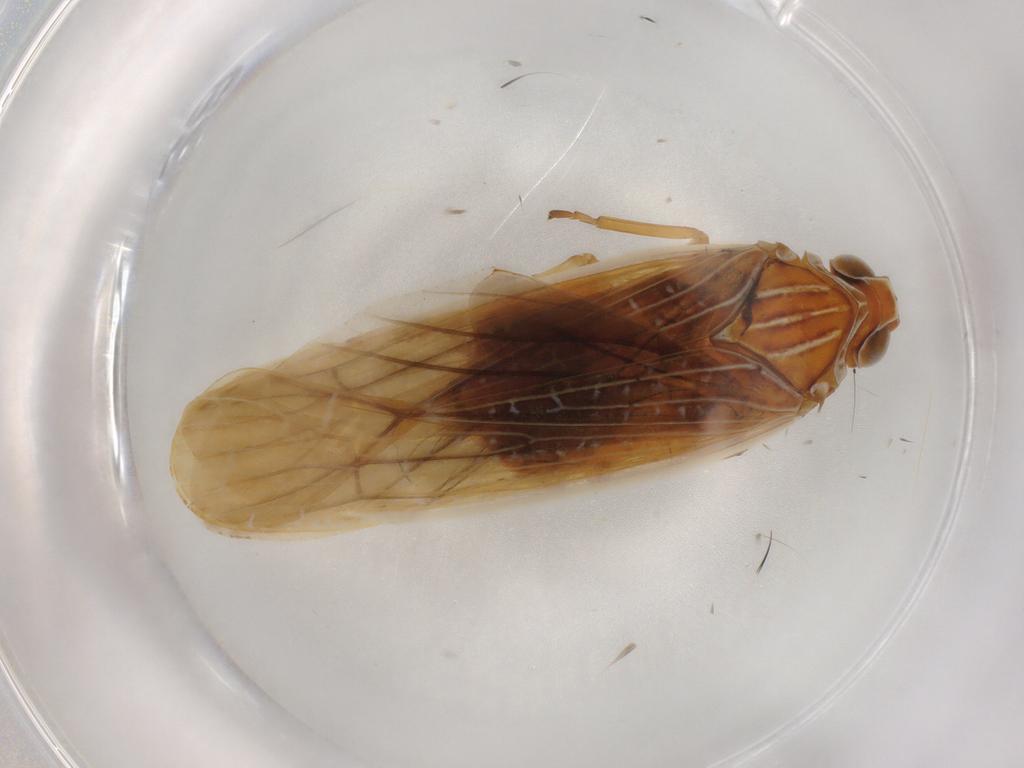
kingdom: Animalia
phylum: Arthropoda
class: Insecta
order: Hemiptera
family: Achilidae
